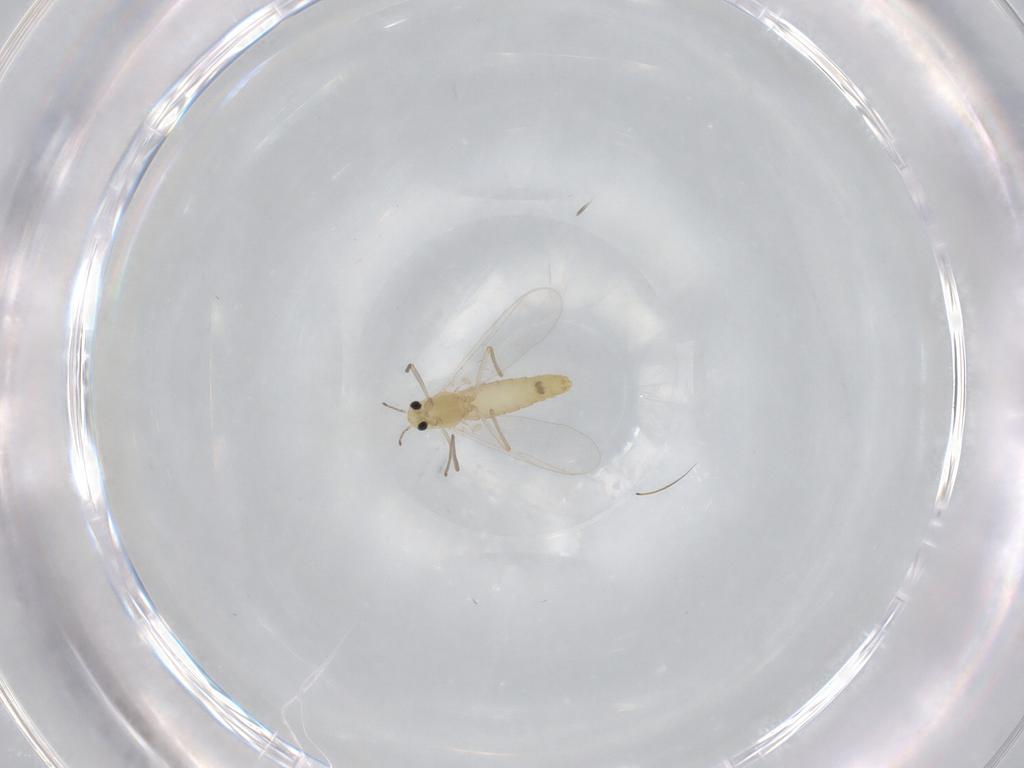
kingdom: Animalia
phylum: Arthropoda
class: Insecta
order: Diptera
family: Chironomidae
